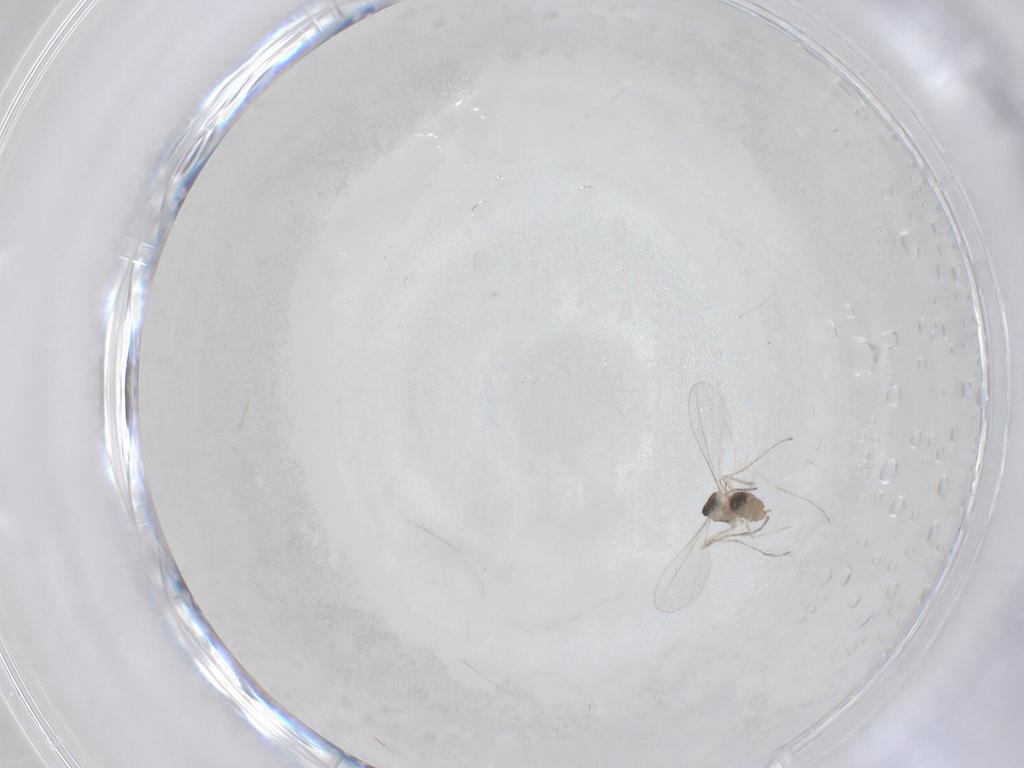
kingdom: Animalia
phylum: Arthropoda
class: Insecta
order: Diptera
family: Cecidomyiidae
